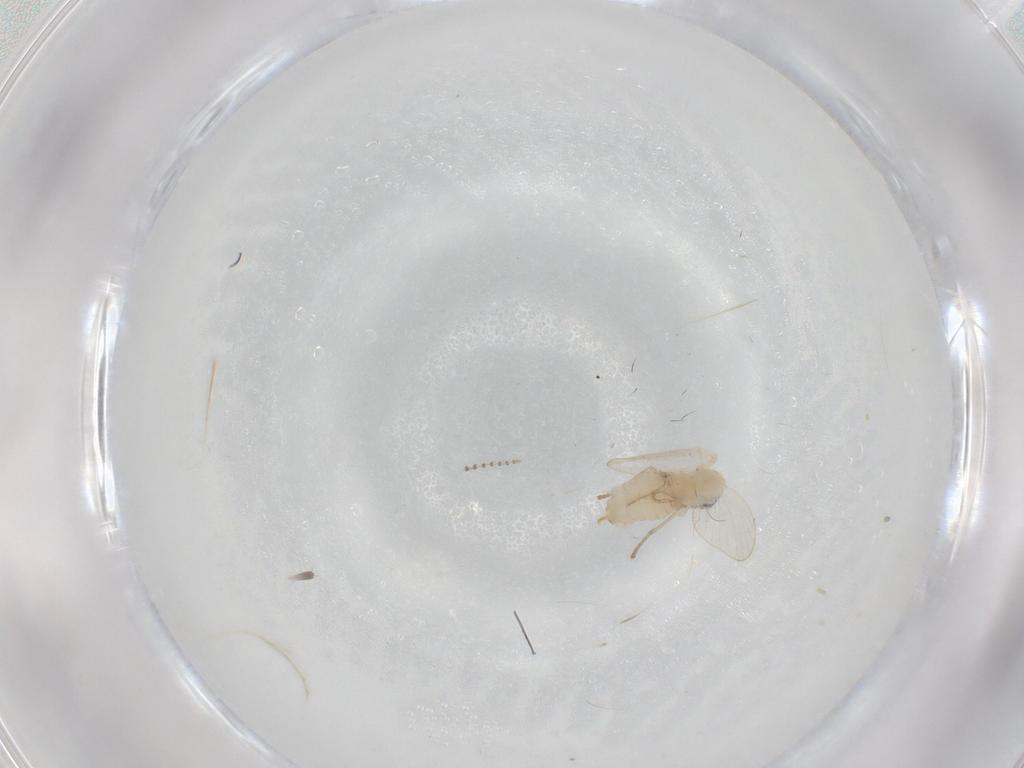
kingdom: Animalia
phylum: Arthropoda
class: Insecta
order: Diptera
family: Psychodidae
